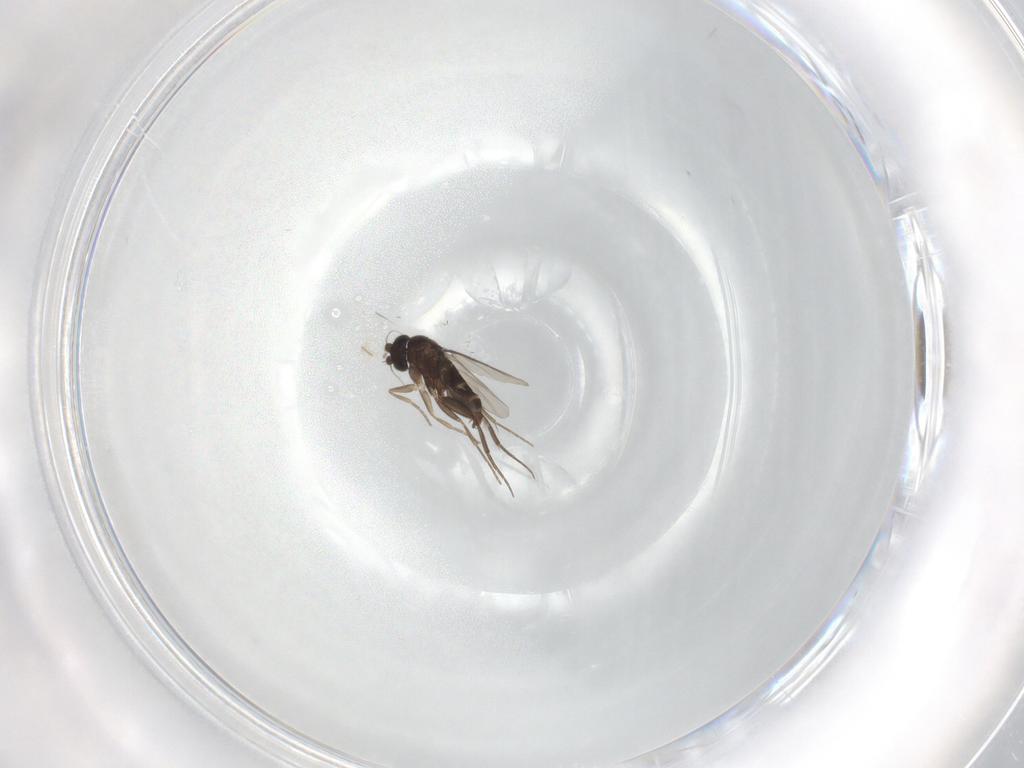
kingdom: Animalia
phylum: Arthropoda
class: Insecta
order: Diptera
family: Phoridae
